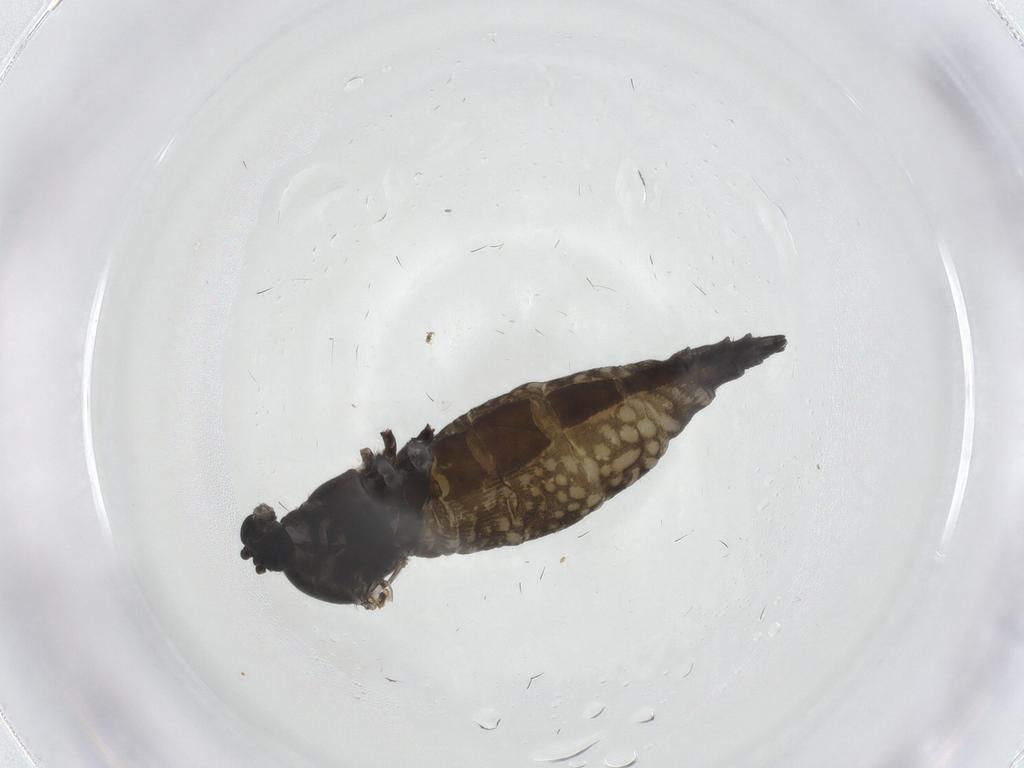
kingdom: Animalia
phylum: Arthropoda
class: Insecta
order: Diptera
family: Sciaridae
